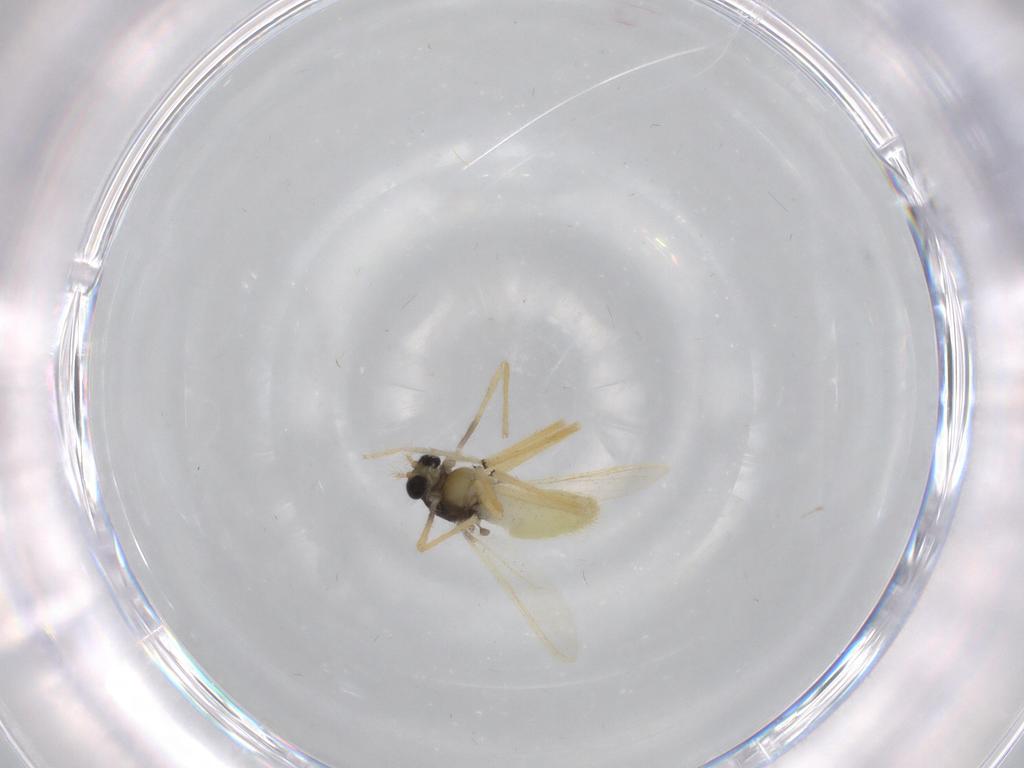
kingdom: Animalia
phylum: Arthropoda
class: Insecta
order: Diptera
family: Chironomidae
